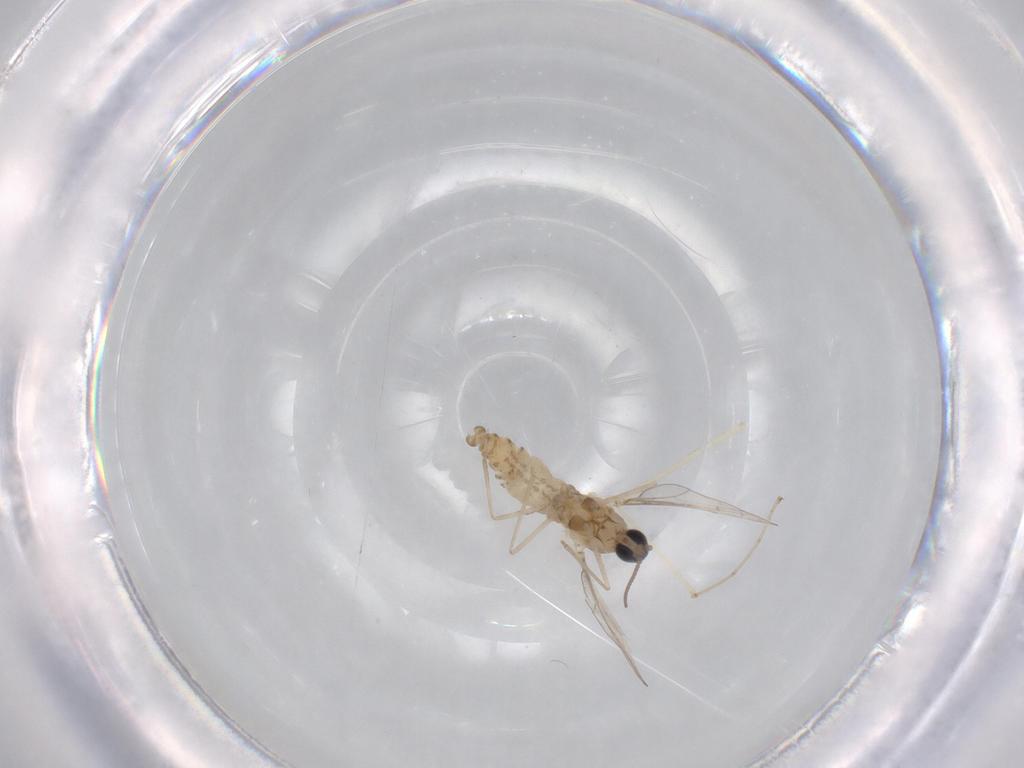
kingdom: Animalia
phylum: Arthropoda
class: Insecta
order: Diptera
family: Cecidomyiidae
